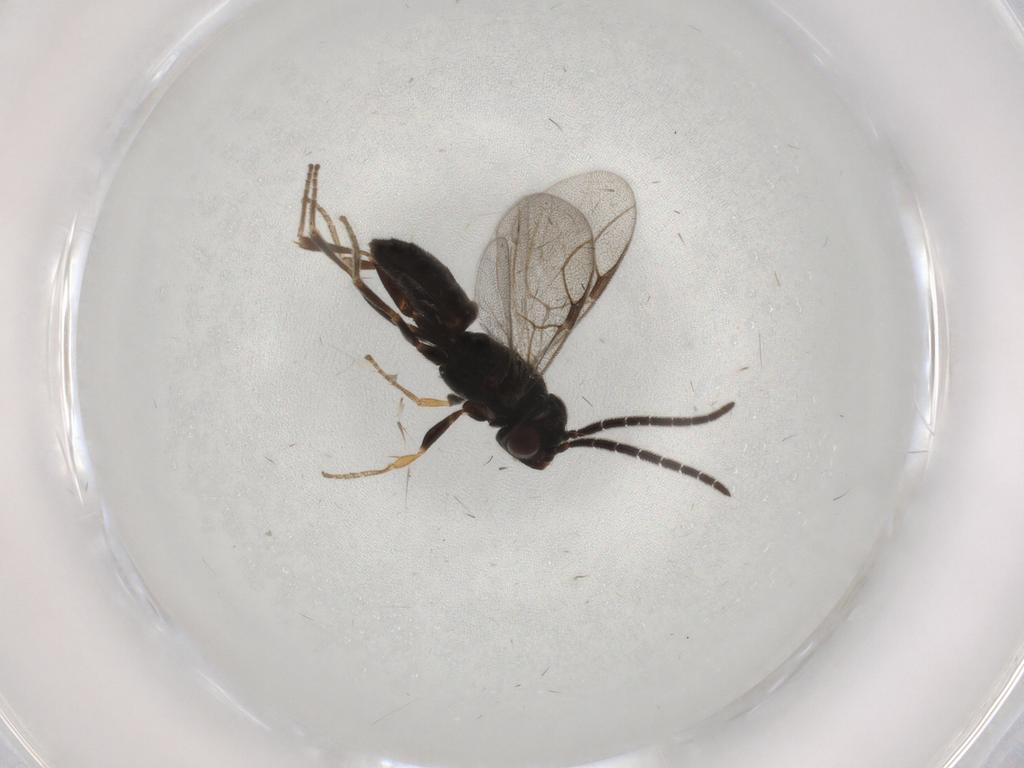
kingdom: Animalia
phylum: Arthropoda
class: Insecta
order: Hymenoptera
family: Dryinidae
